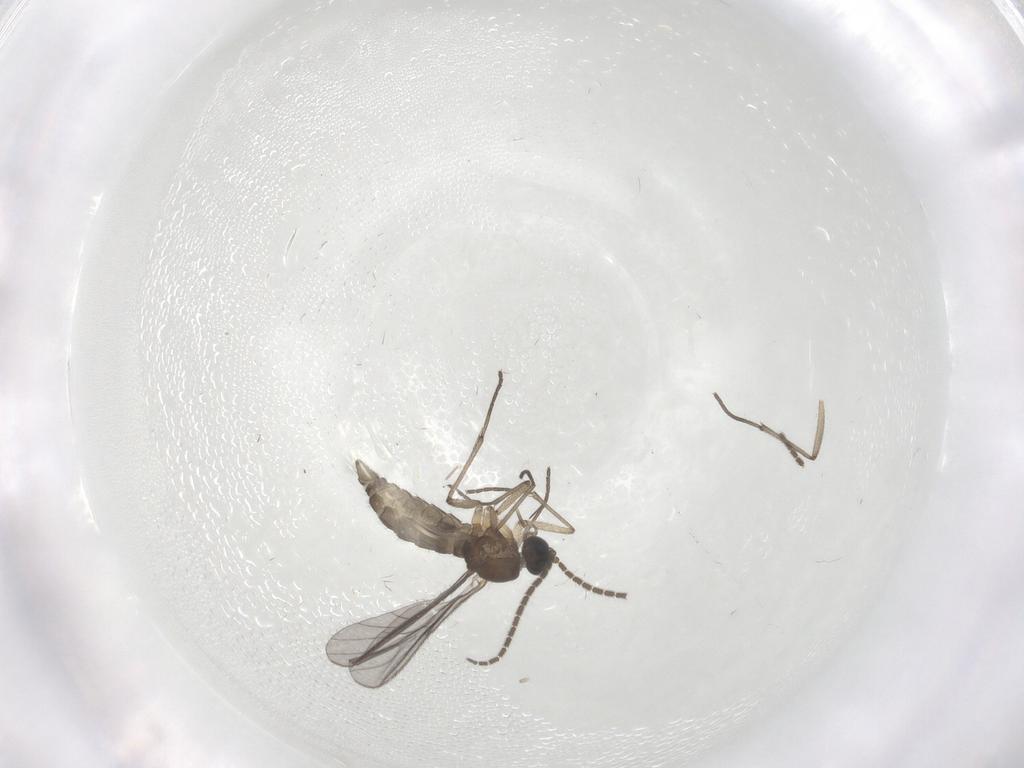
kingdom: Animalia
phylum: Arthropoda
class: Insecta
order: Diptera
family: Sciaridae
